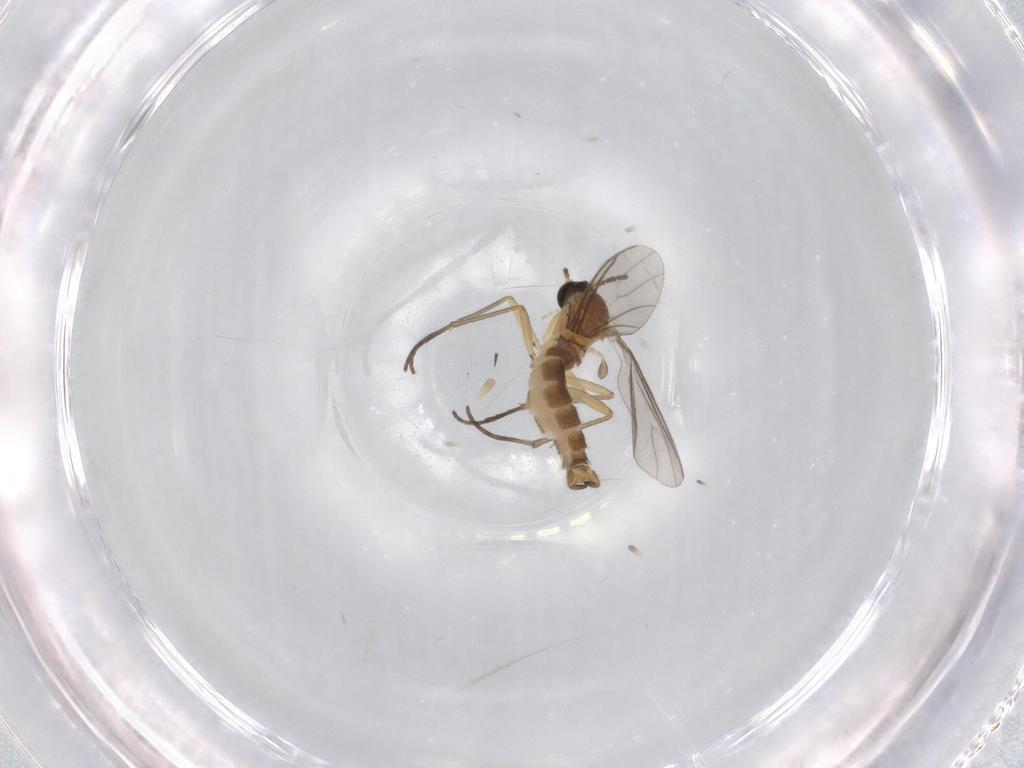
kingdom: Animalia
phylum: Arthropoda
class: Insecta
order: Diptera
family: Sciaridae
